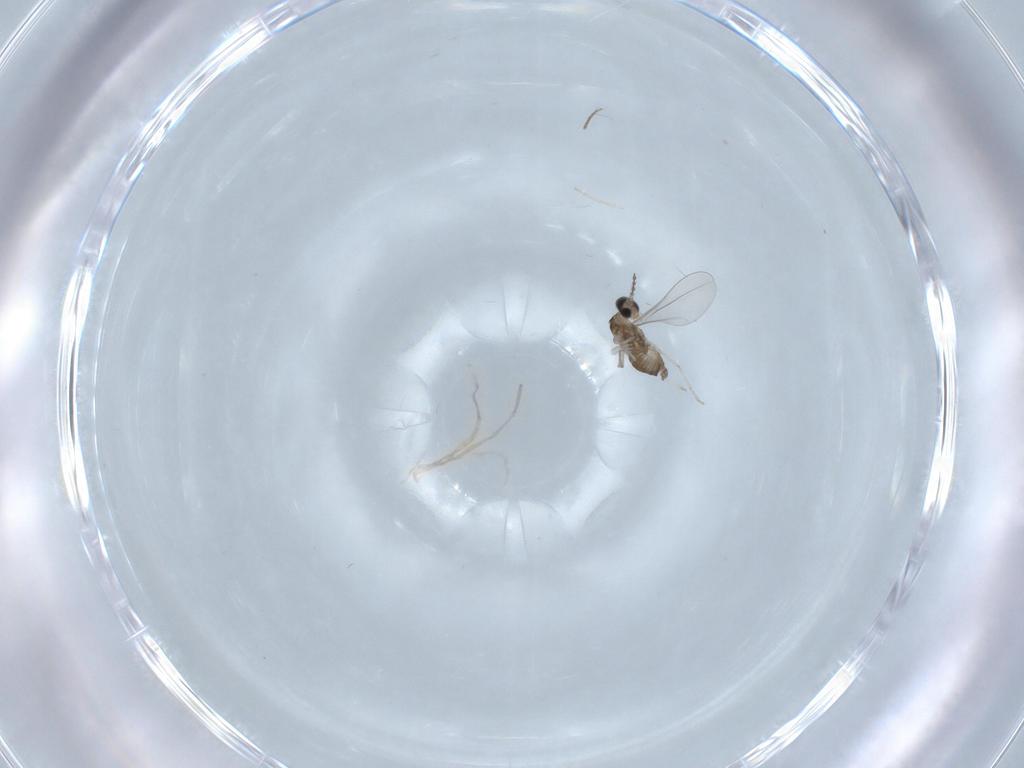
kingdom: Animalia
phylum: Arthropoda
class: Insecta
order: Diptera
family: Cecidomyiidae
